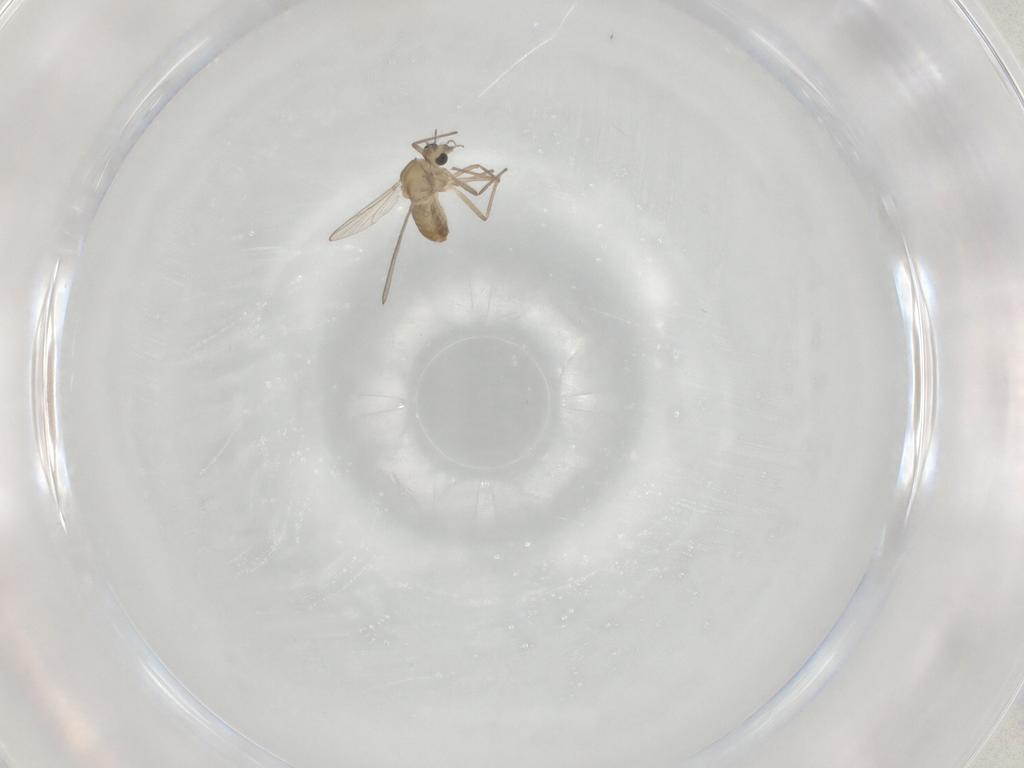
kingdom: Animalia
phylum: Arthropoda
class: Insecta
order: Diptera
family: Chironomidae
